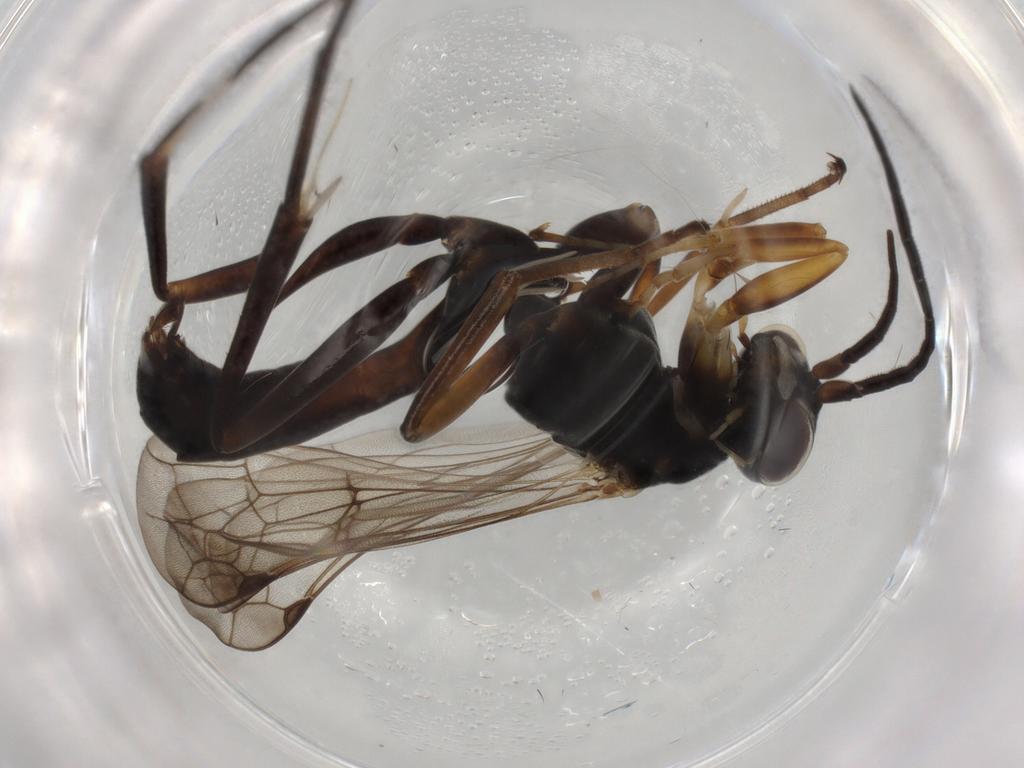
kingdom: Animalia
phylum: Arthropoda
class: Insecta
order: Hymenoptera
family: Pompilidae
